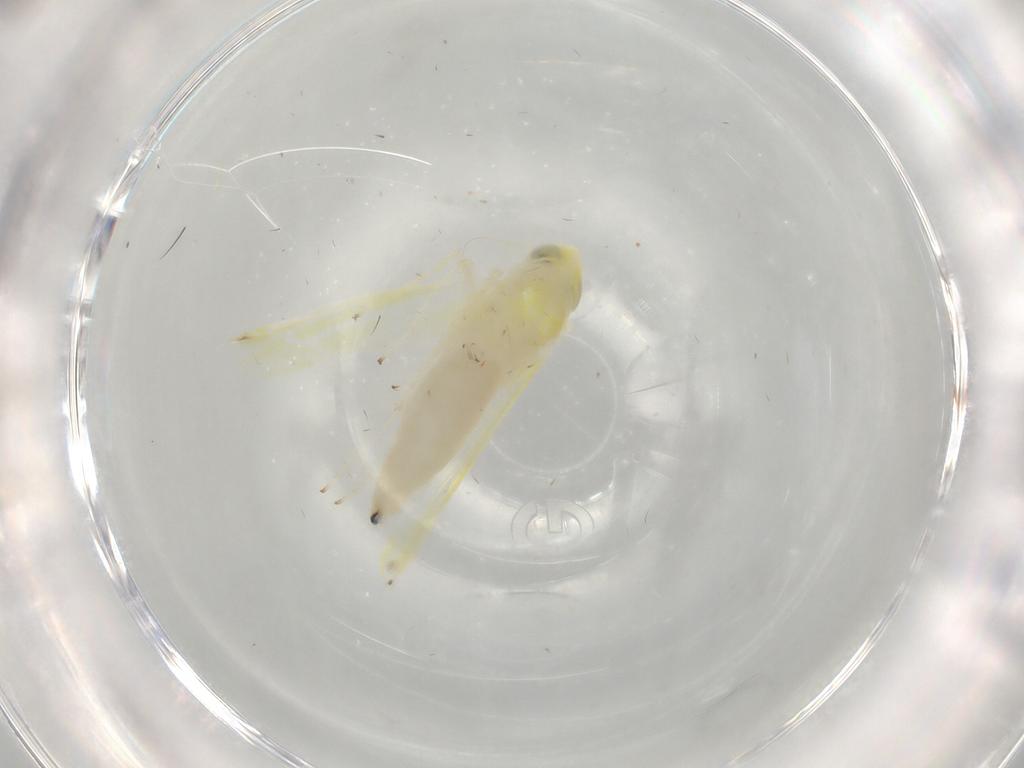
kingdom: Animalia
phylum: Arthropoda
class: Insecta
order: Hemiptera
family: Cicadellidae
